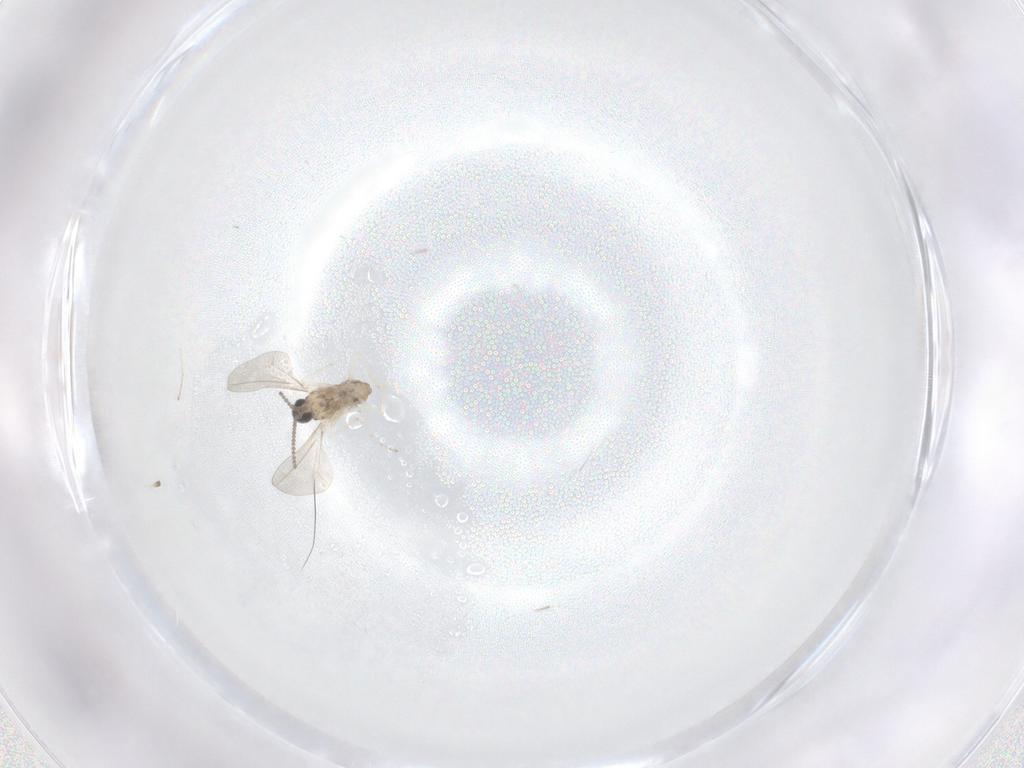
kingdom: Animalia
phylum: Arthropoda
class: Insecta
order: Diptera
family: Cecidomyiidae
